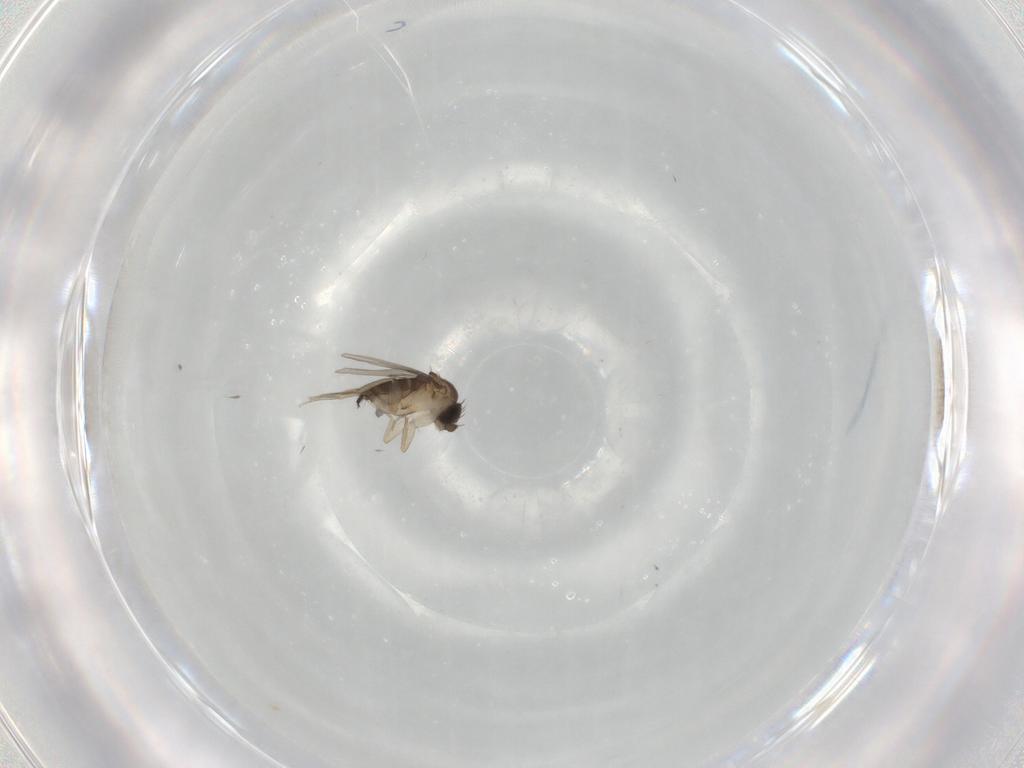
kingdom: Animalia
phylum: Arthropoda
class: Insecta
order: Diptera
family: Phoridae
